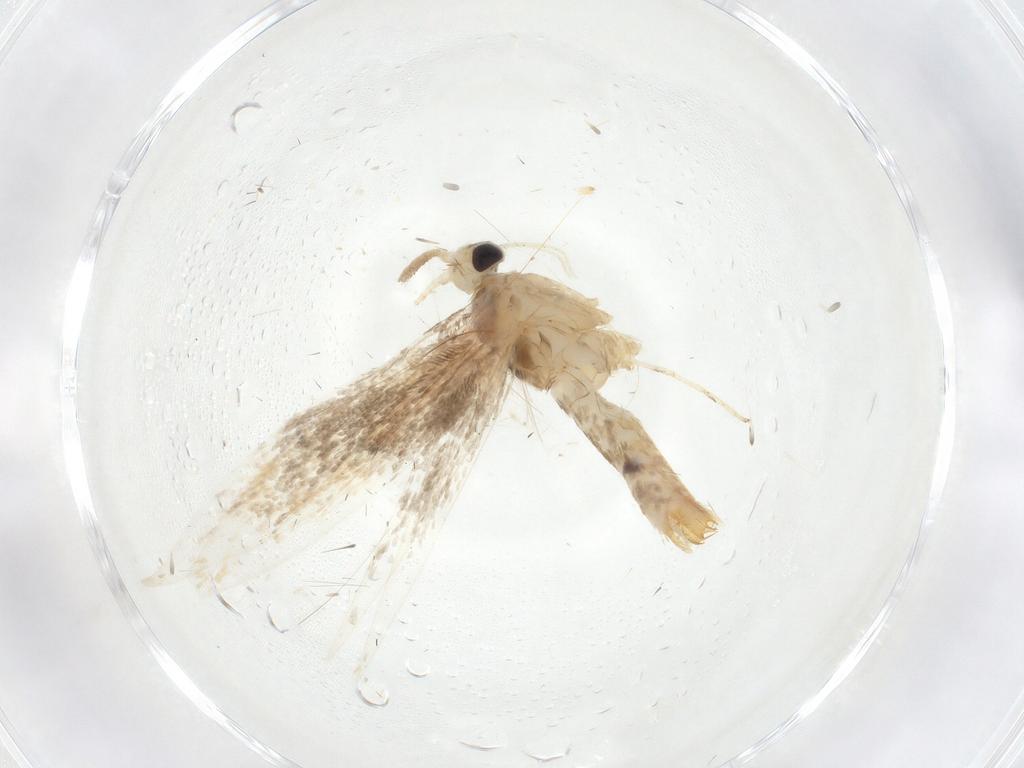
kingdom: Animalia
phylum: Arthropoda
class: Insecta
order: Lepidoptera
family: Gracillariidae
